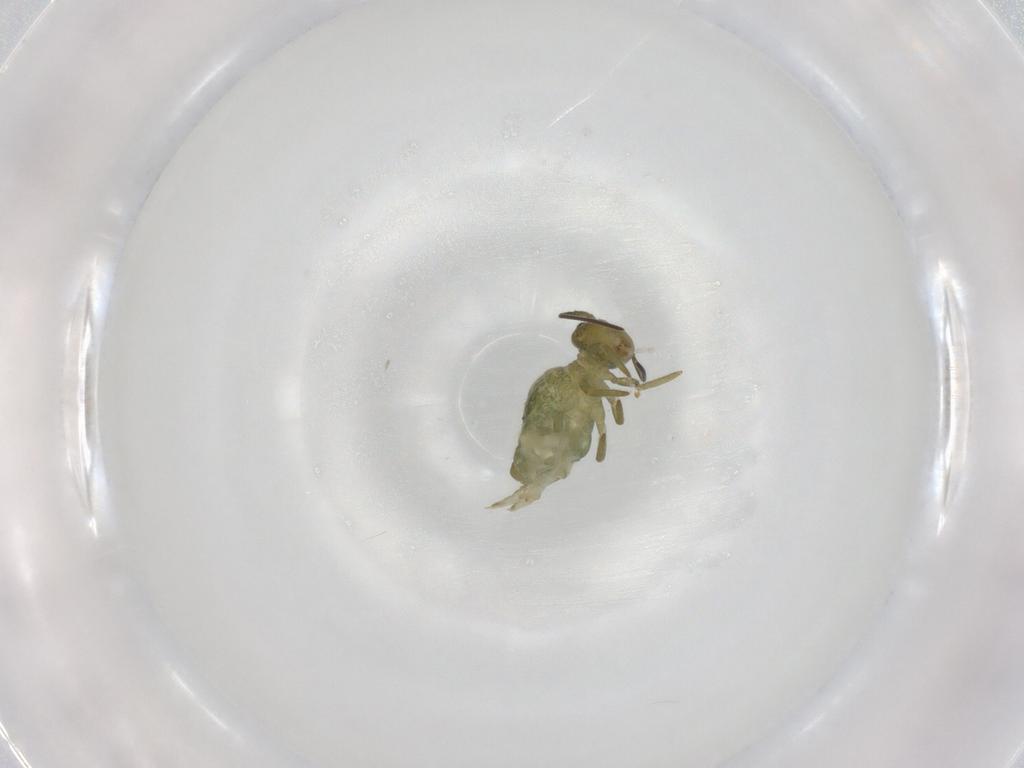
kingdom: Animalia
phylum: Arthropoda
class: Collembola
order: Symphypleona
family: Sminthuridae
